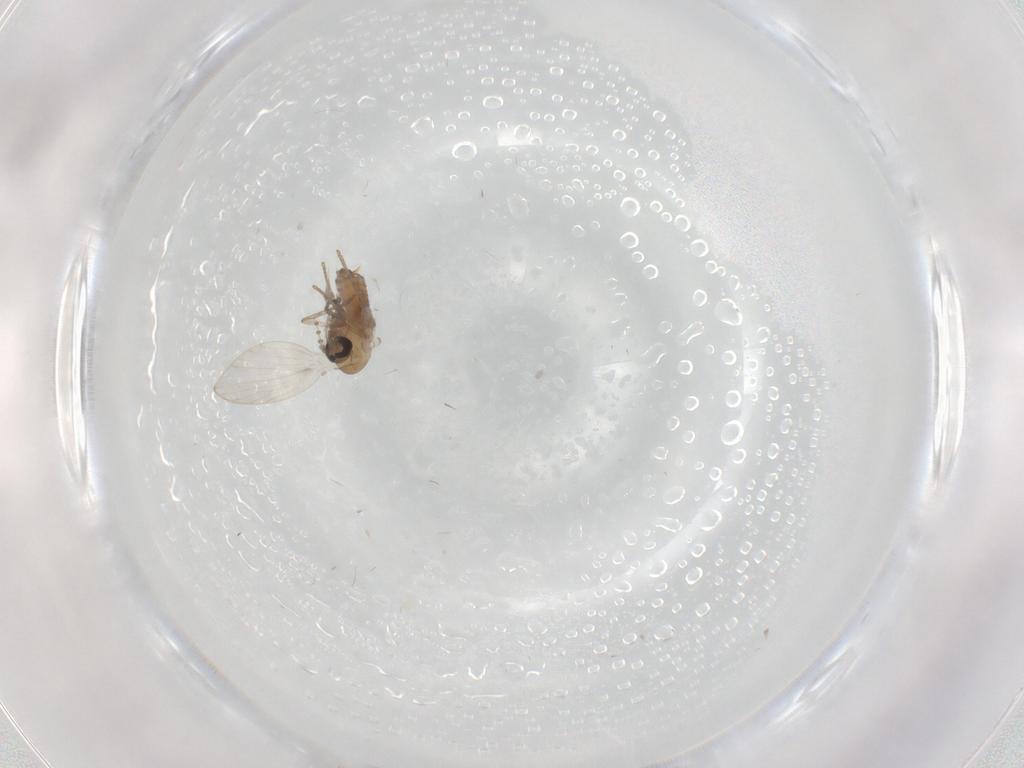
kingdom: Animalia
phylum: Arthropoda
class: Insecta
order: Diptera
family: Psychodidae
